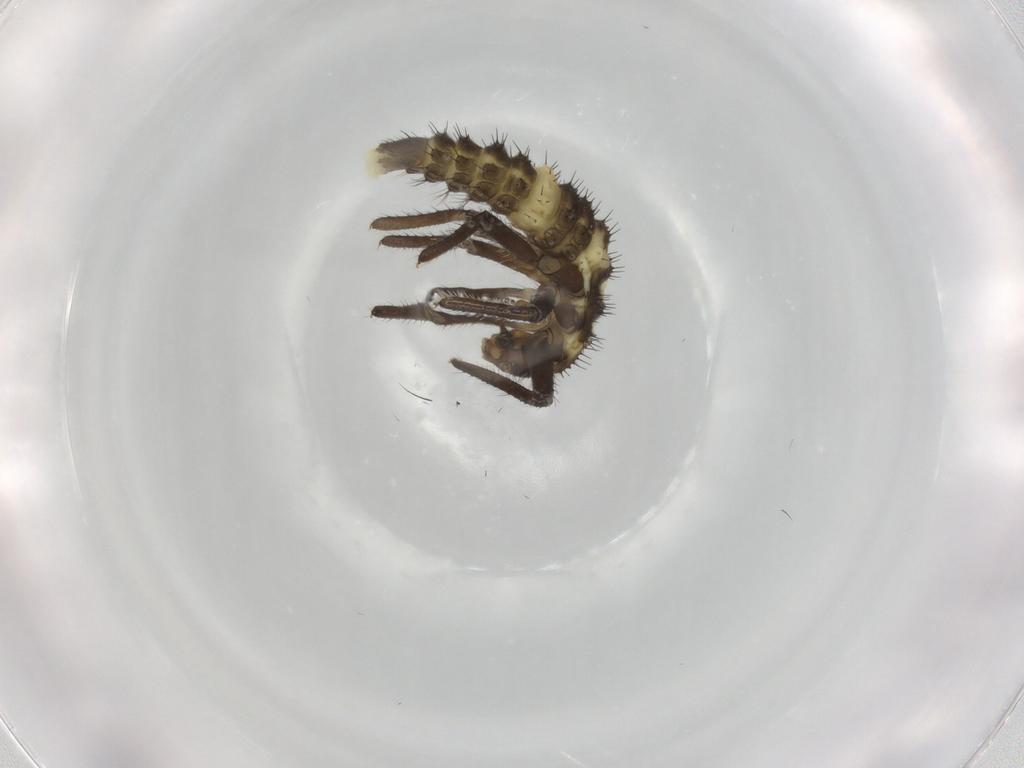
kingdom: Animalia
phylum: Arthropoda
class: Insecta
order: Coleoptera
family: Coccinellidae
